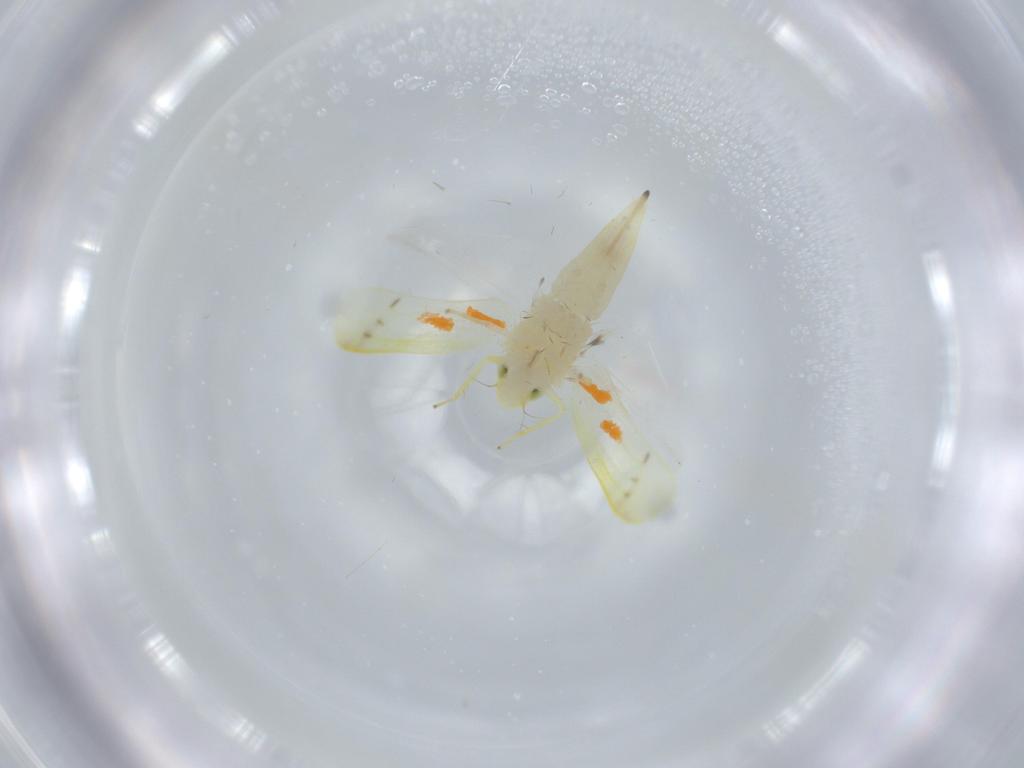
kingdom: Animalia
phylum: Arthropoda
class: Insecta
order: Hemiptera
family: Cicadellidae
